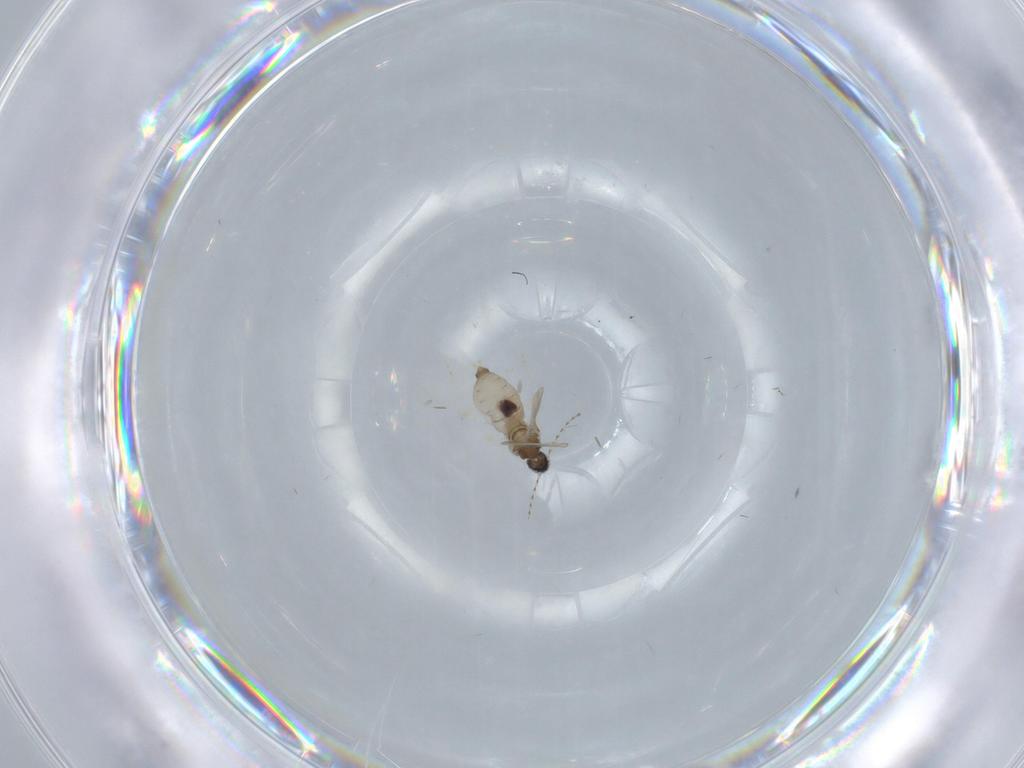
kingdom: Animalia
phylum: Arthropoda
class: Insecta
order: Diptera
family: Cecidomyiidae
